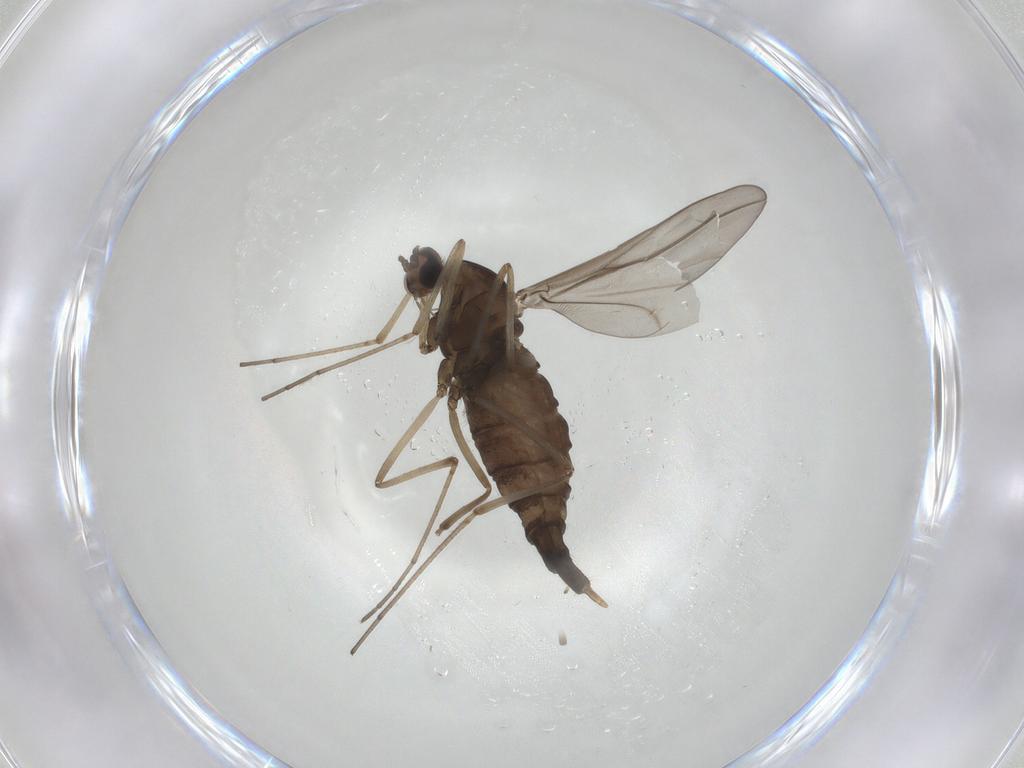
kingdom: Animalia
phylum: Arthropoda
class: Insecta
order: Diptera
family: Cecidomyiidae
